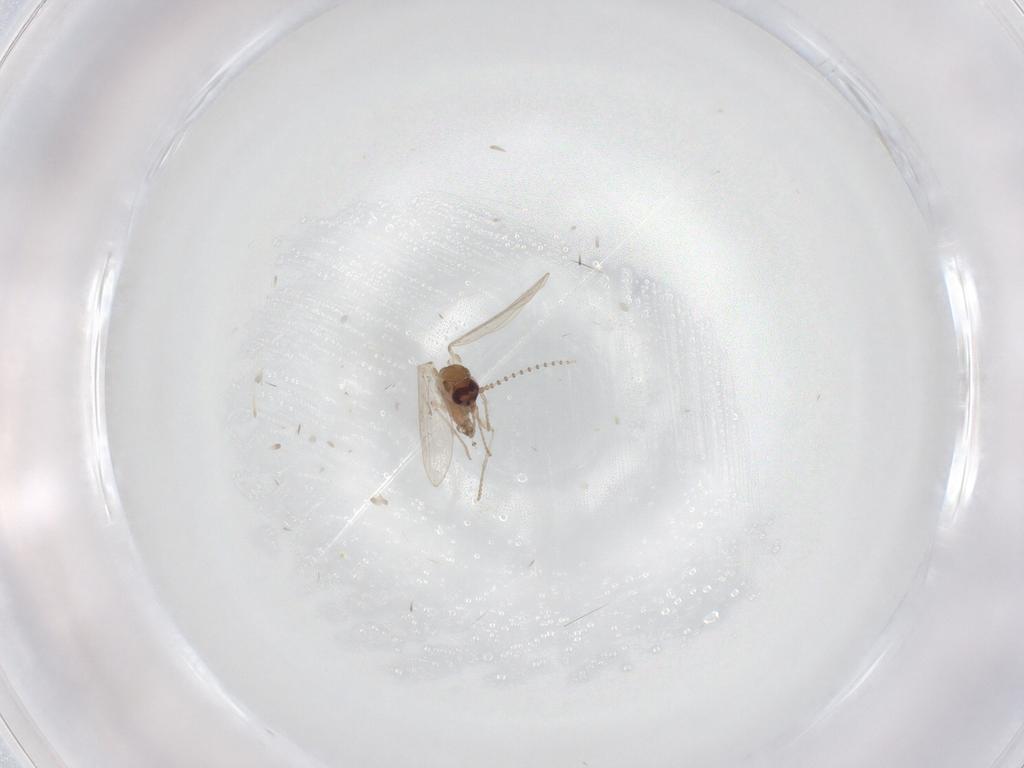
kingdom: Animalia
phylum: Arthropoda
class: Insecta
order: Diptera
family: Psychodidae
